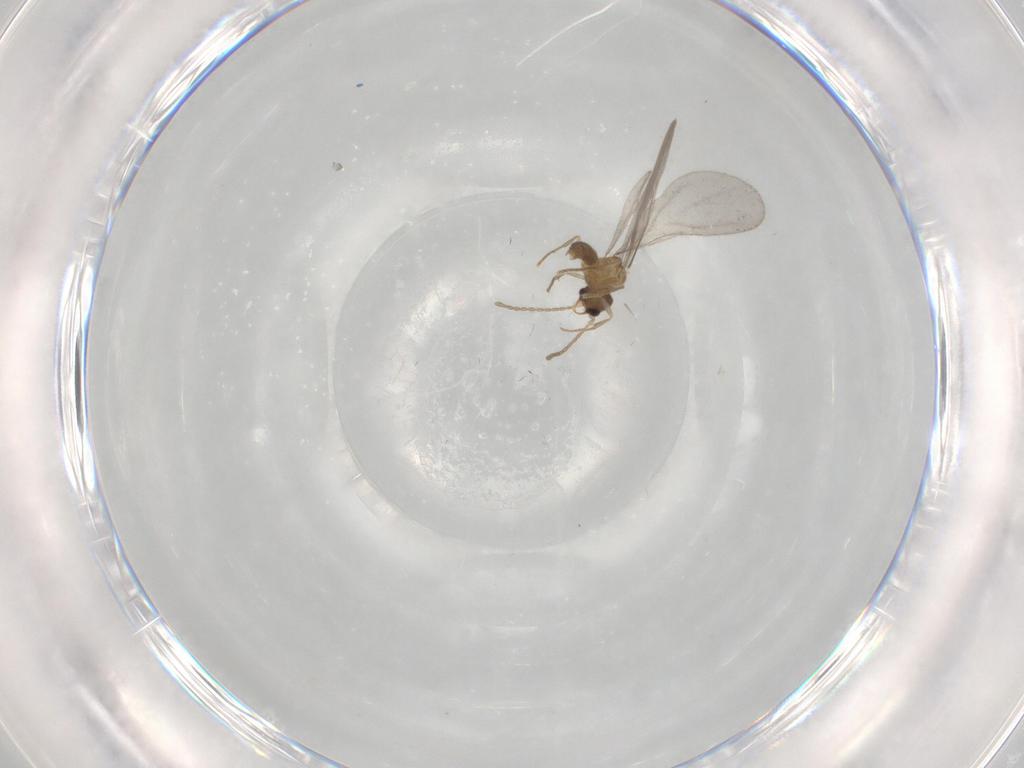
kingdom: Animalia
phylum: Arthropoda
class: Insecta
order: Hymenoptera
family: Formicidae
